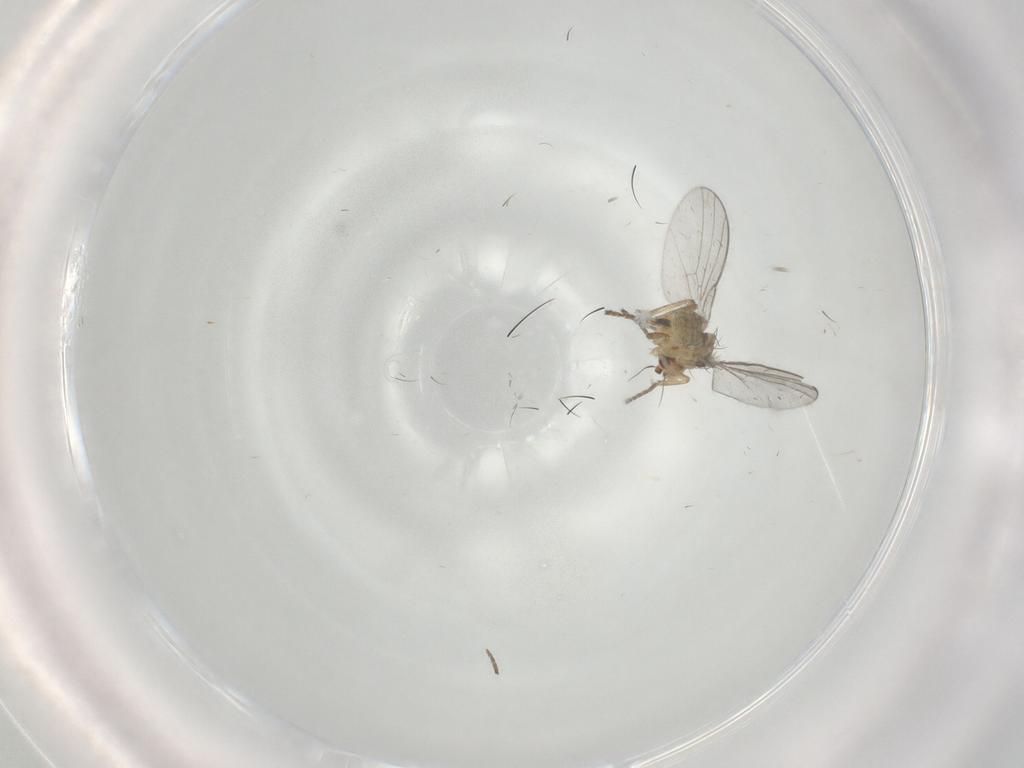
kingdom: Animalia
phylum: Arthropoda
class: Insecta
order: Diptera
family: Agromyzidae
